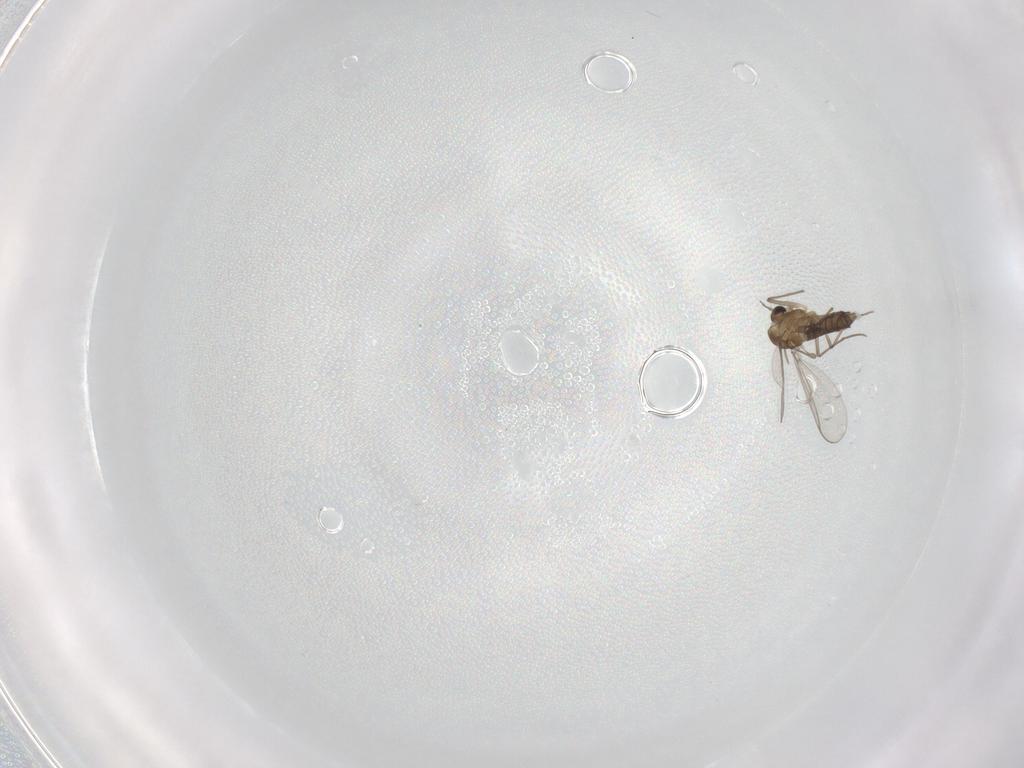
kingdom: Animalia
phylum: Arthropoda
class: Insecta
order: Diptera
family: Chironomidae
